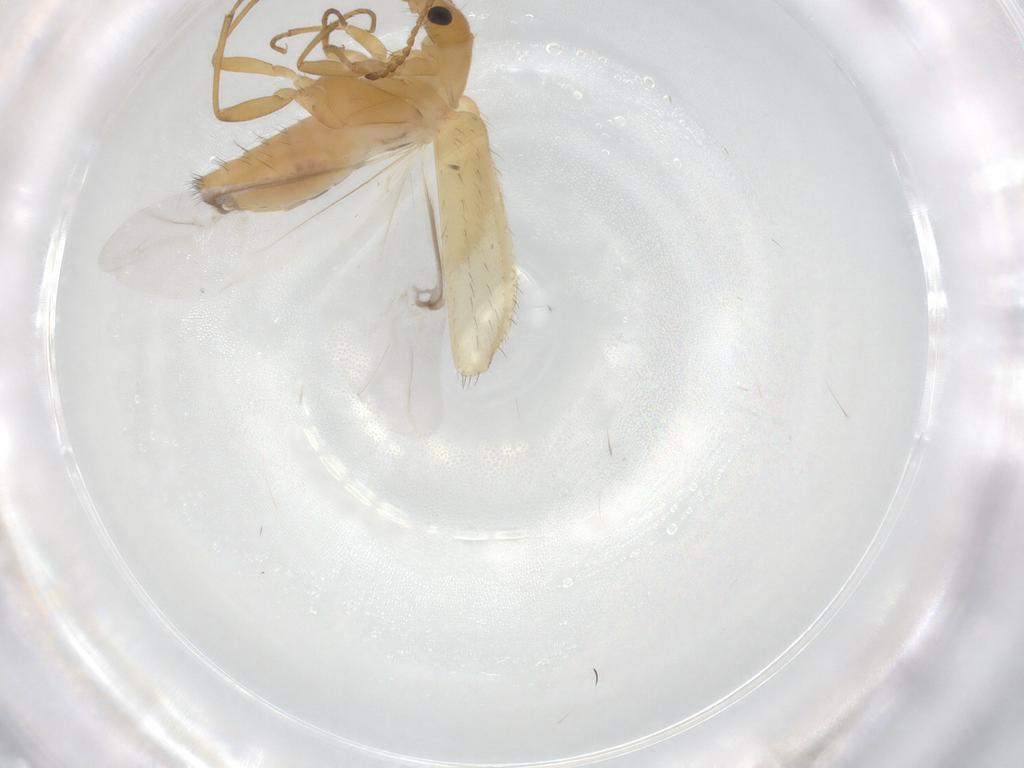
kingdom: Animalia
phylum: Arthropoda
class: Insecta
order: Coleoptera
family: Melyridae
